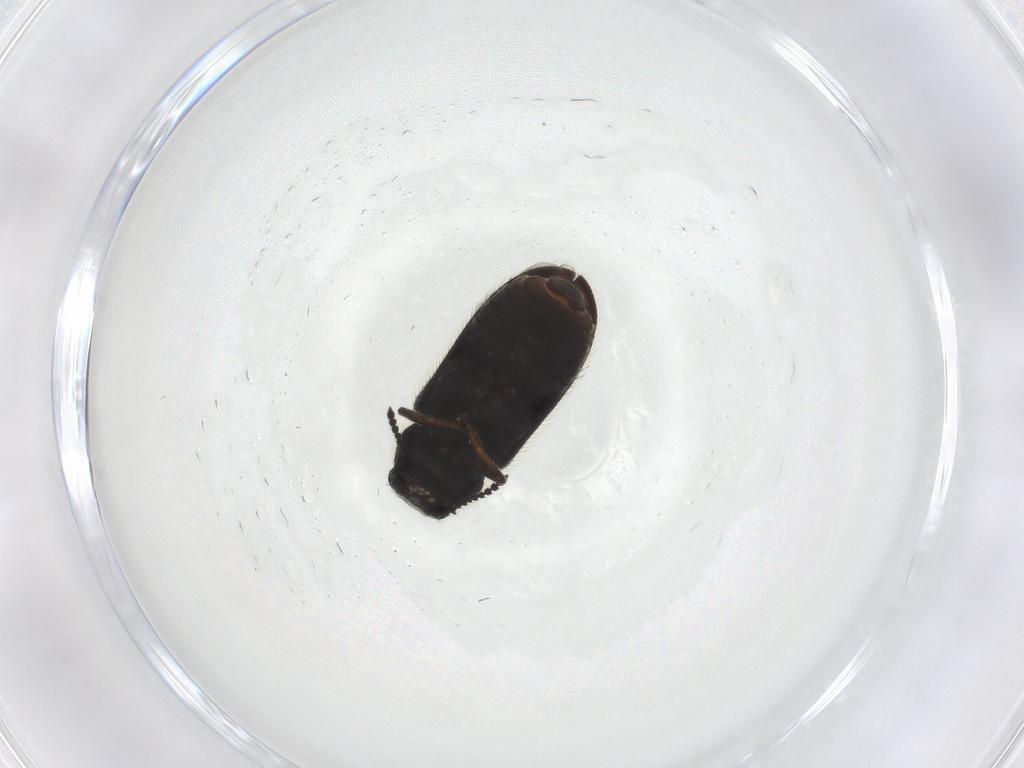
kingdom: Animalia
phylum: Arthropoda
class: Insecta
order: Coleoptera
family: Melyridae
